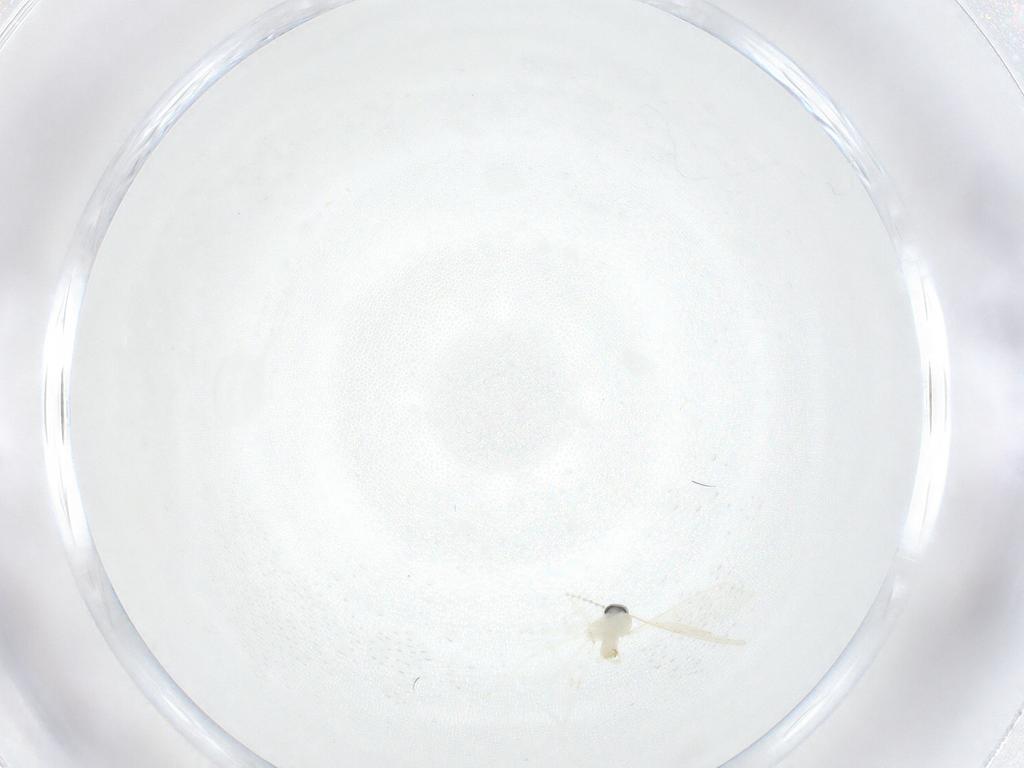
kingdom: Animalia
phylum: Arthropoda
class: Insecta
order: Diptera
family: Cecidomyiidae
